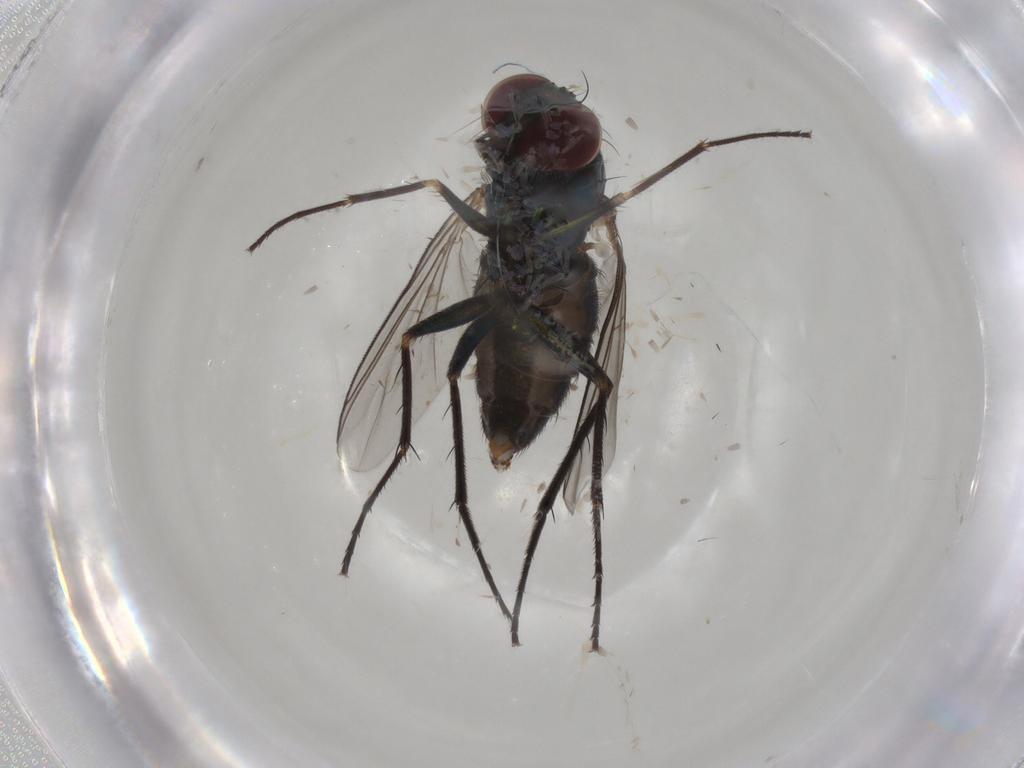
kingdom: Animalia
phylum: Arthropoda
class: Insecta
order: Diptera
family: Dolichopodidae
